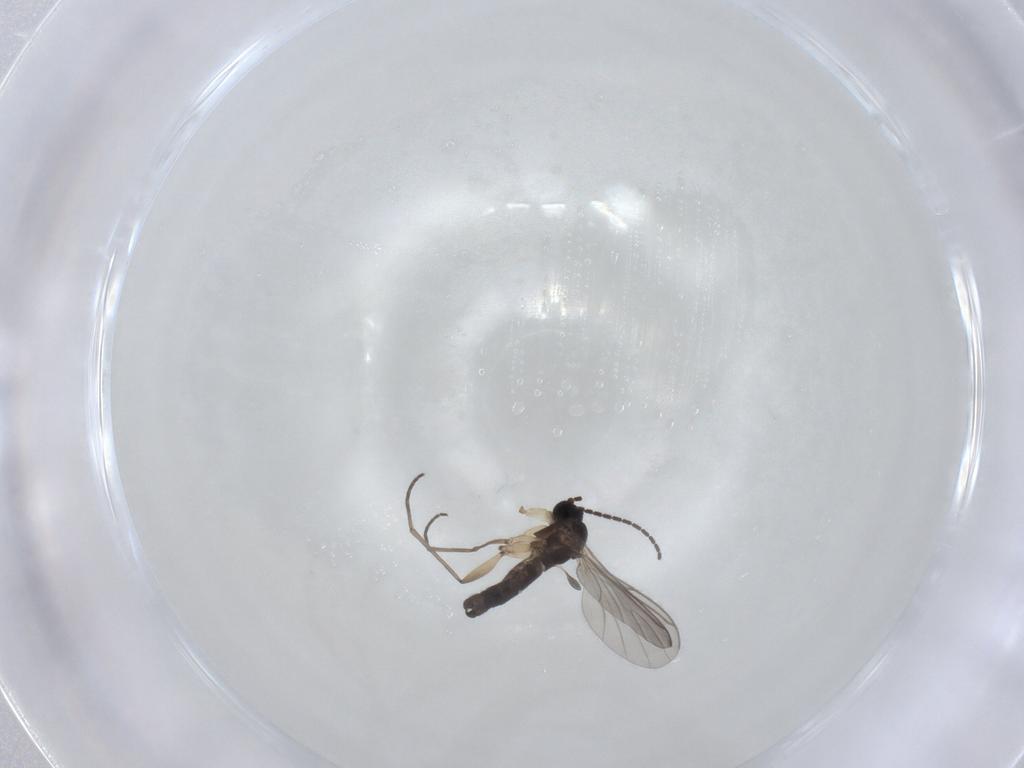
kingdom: Animalia
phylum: Arthropoda
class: Insecta
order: Diptera
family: Sciaridae
